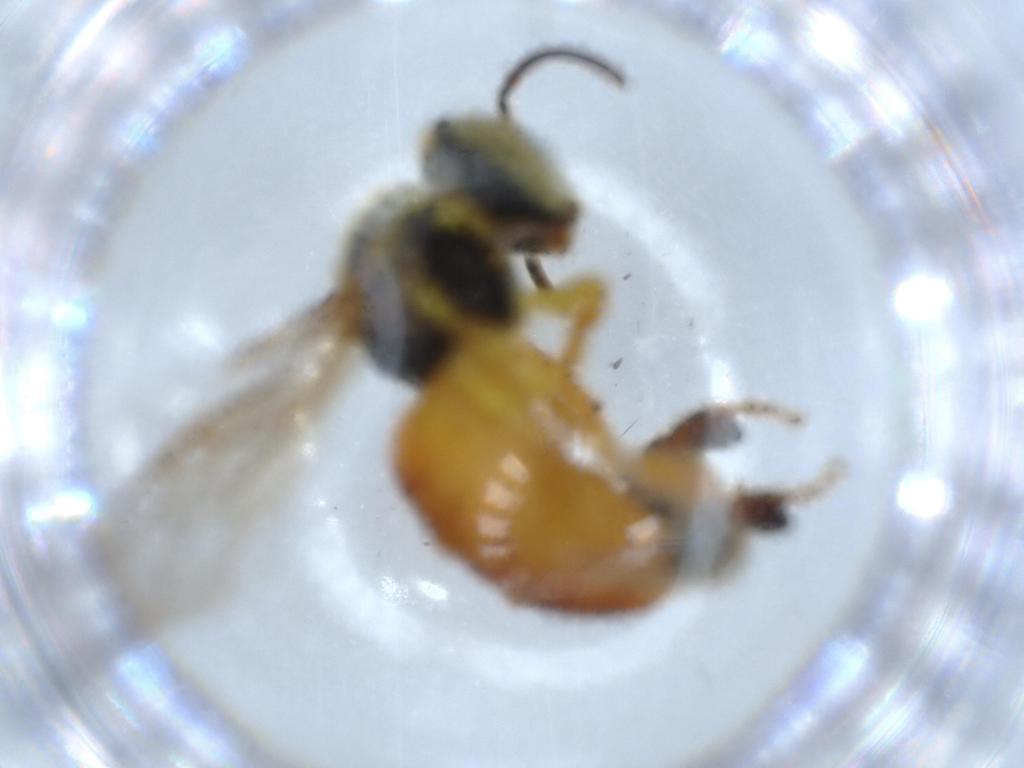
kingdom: Animalia
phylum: Arthropoda
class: Insecta
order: Hymenoptera
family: Apidae
